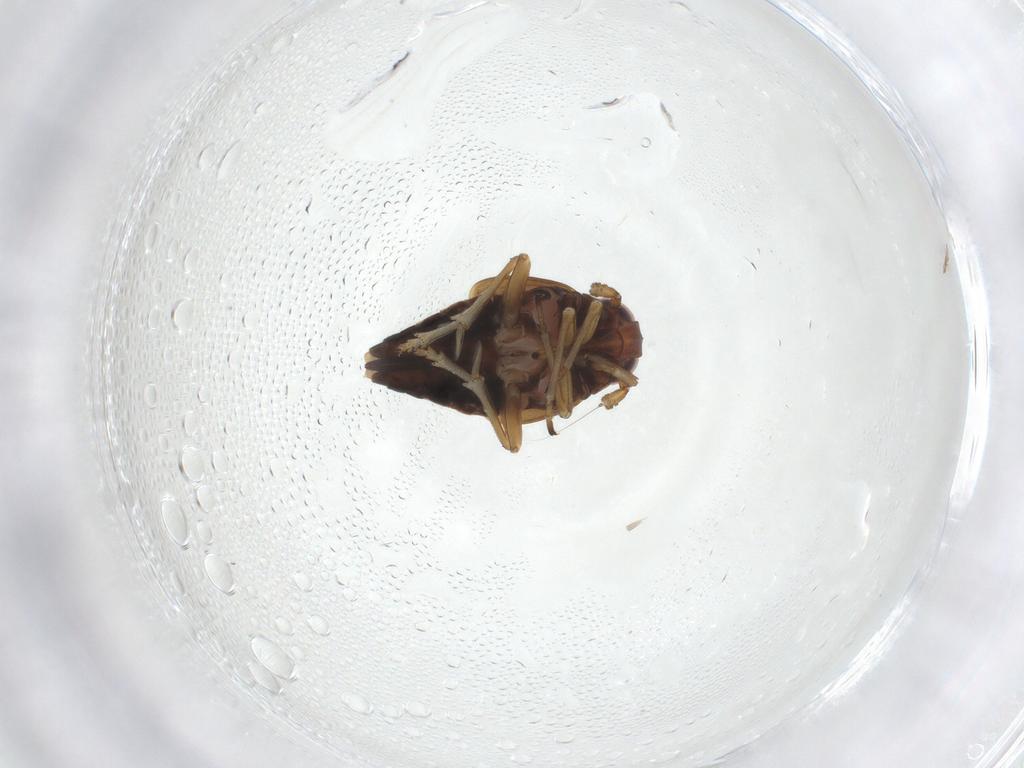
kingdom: Animalia
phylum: Arthropoda
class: Insecta
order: Hemiptera
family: Delphacidae
